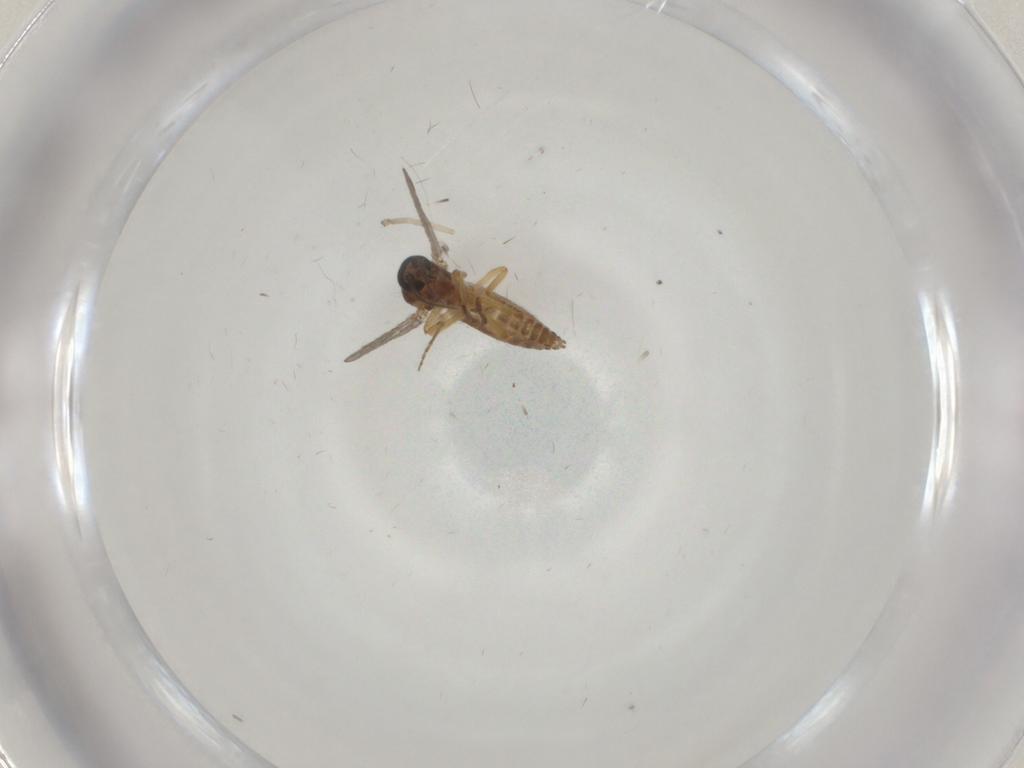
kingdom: Animalia
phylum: Arthropoda
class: Insecta
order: Diptera
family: Ceratopogonidae
